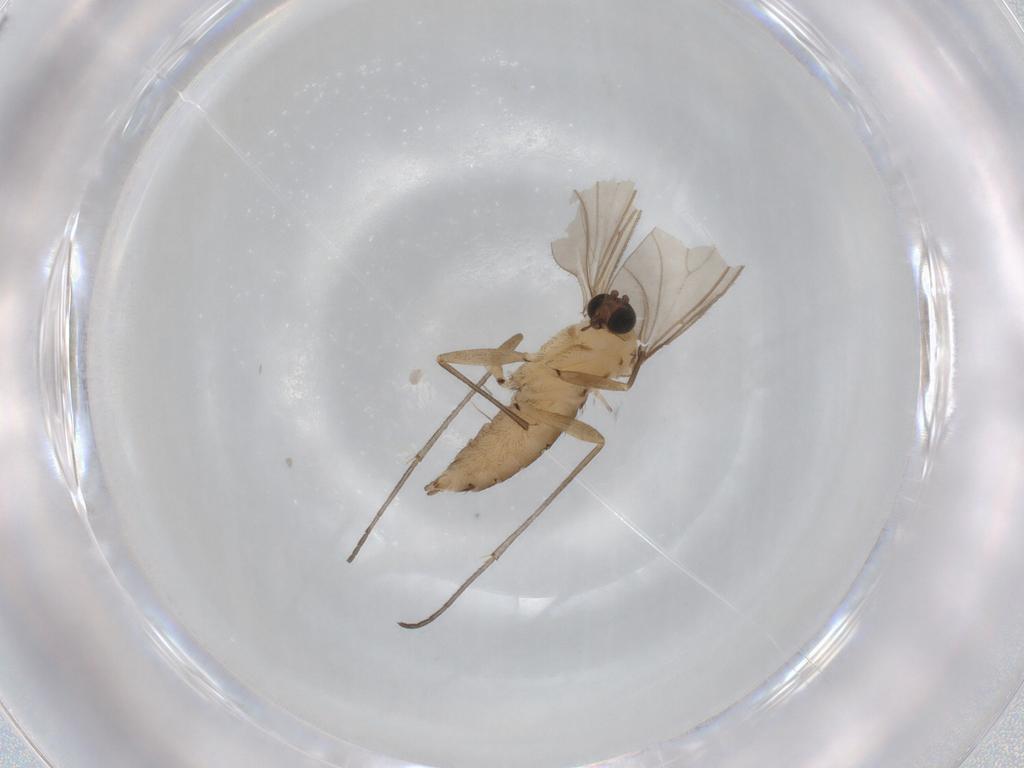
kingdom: Animalia
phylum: Arthropoda
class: Insecta
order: Diptera
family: Sciaridae
